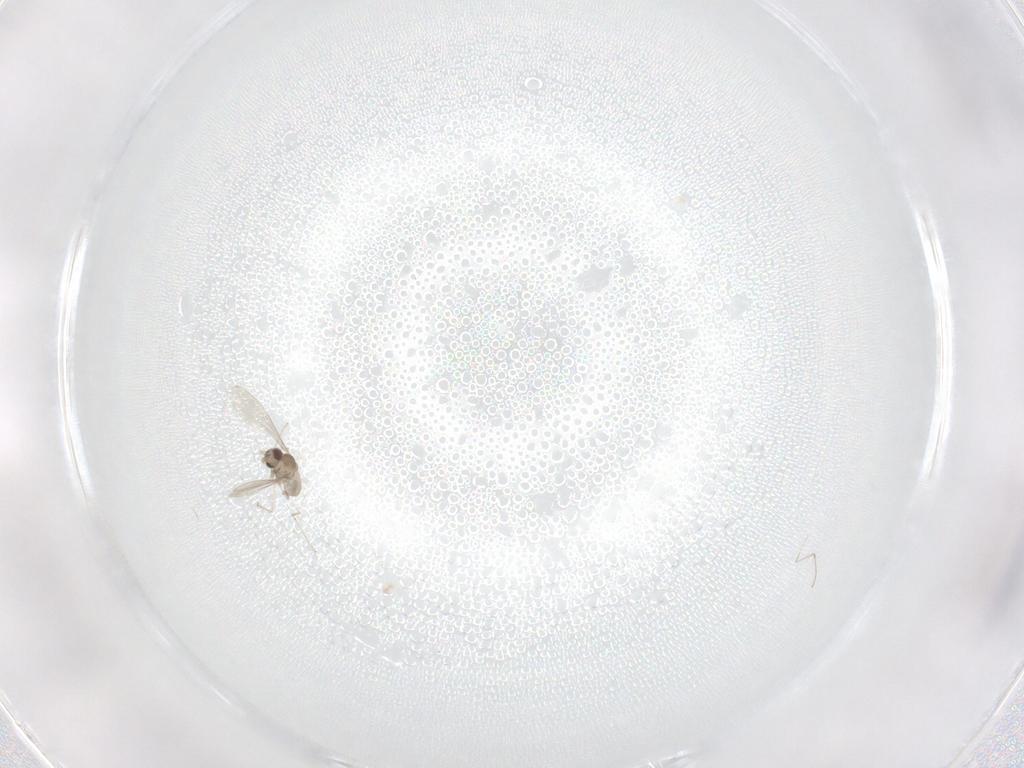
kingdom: Animalia
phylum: Arthropoda
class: Insecta
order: Diptera
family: Cecidomyiidae
